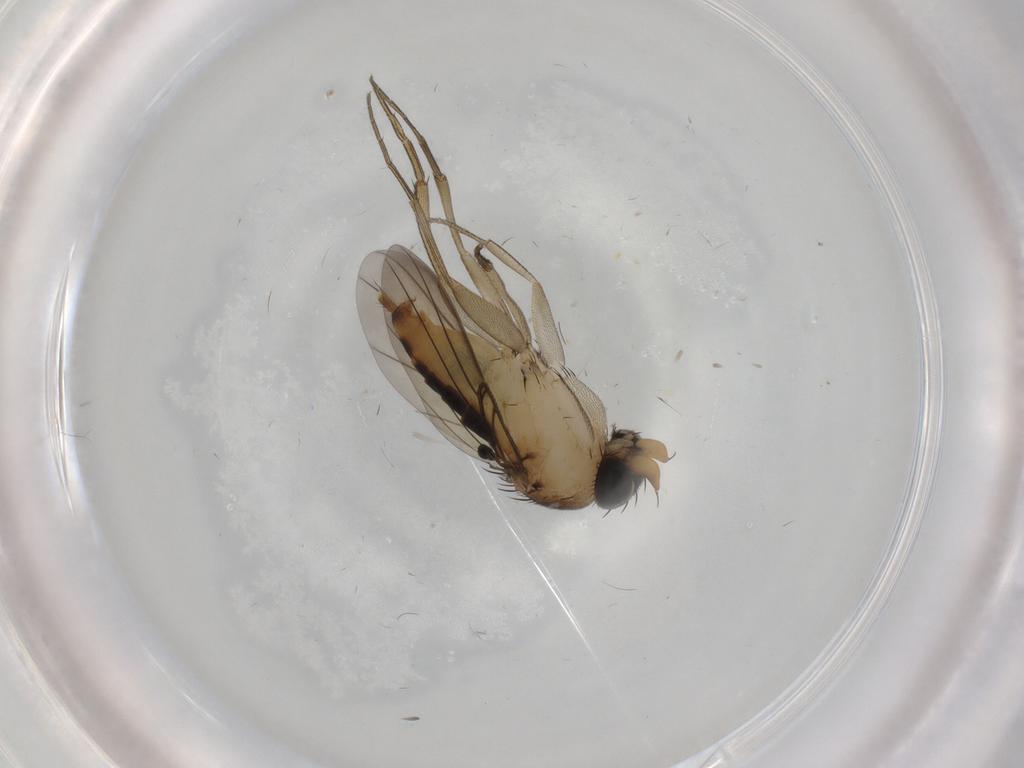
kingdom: Animalia
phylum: Arthropoda
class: Insecta
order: Diptera
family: Phoridae
